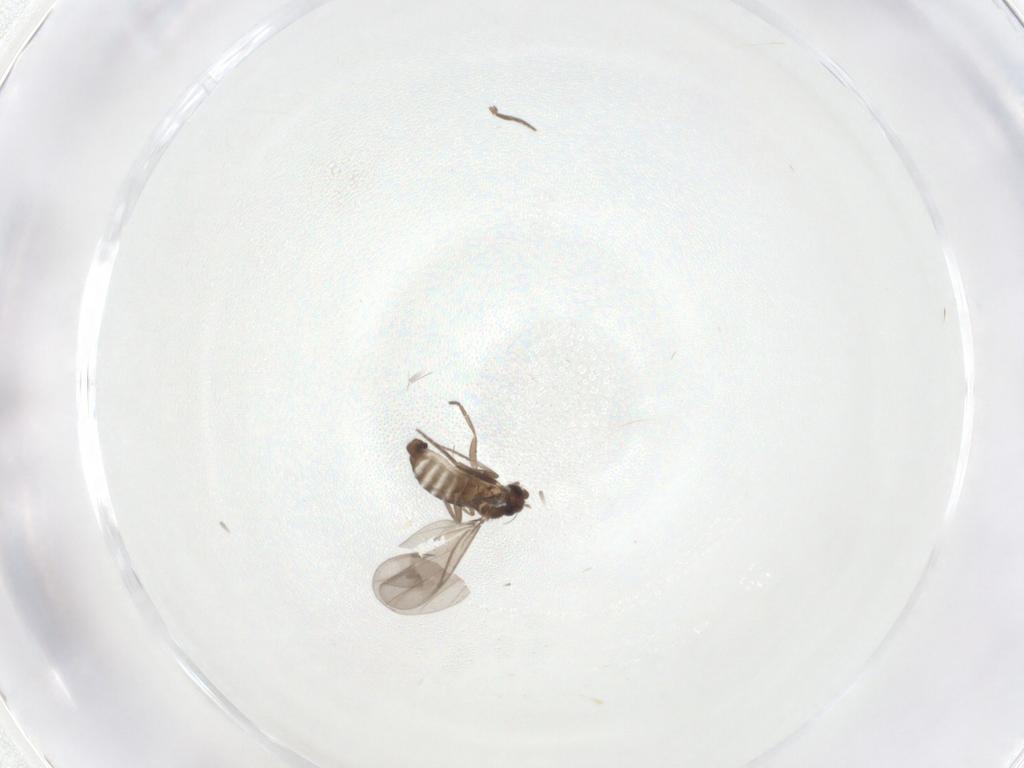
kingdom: Animalia
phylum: Arthropoda
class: Insecta
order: Diptera
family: Phoridae
